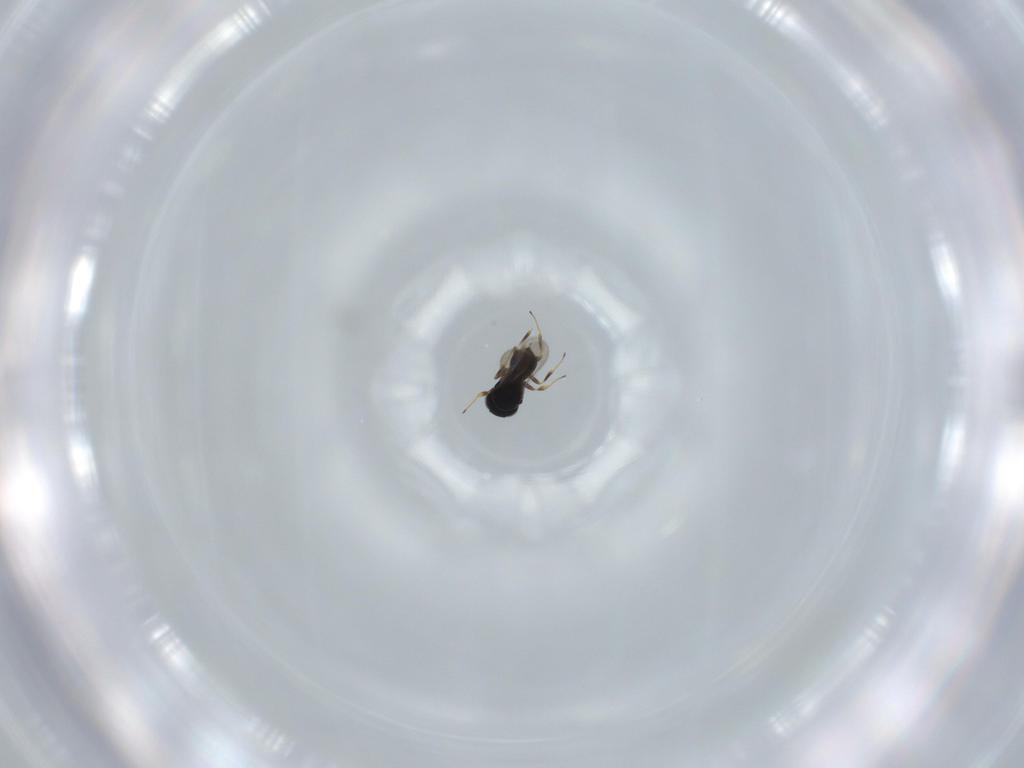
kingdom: Animalia
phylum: Arthropoda
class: Insecta
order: Hymenoptera
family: Scelionidae
